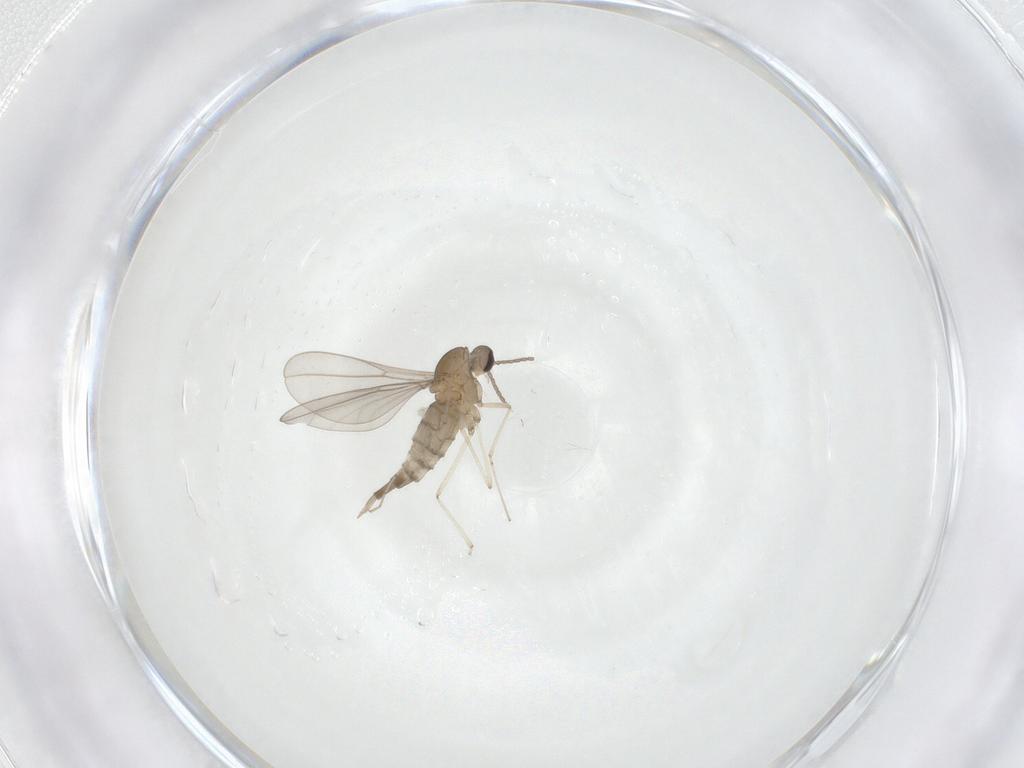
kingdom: Animalia
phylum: Arthropoda
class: Insecta
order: Diptera
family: Cecidomyiidae
